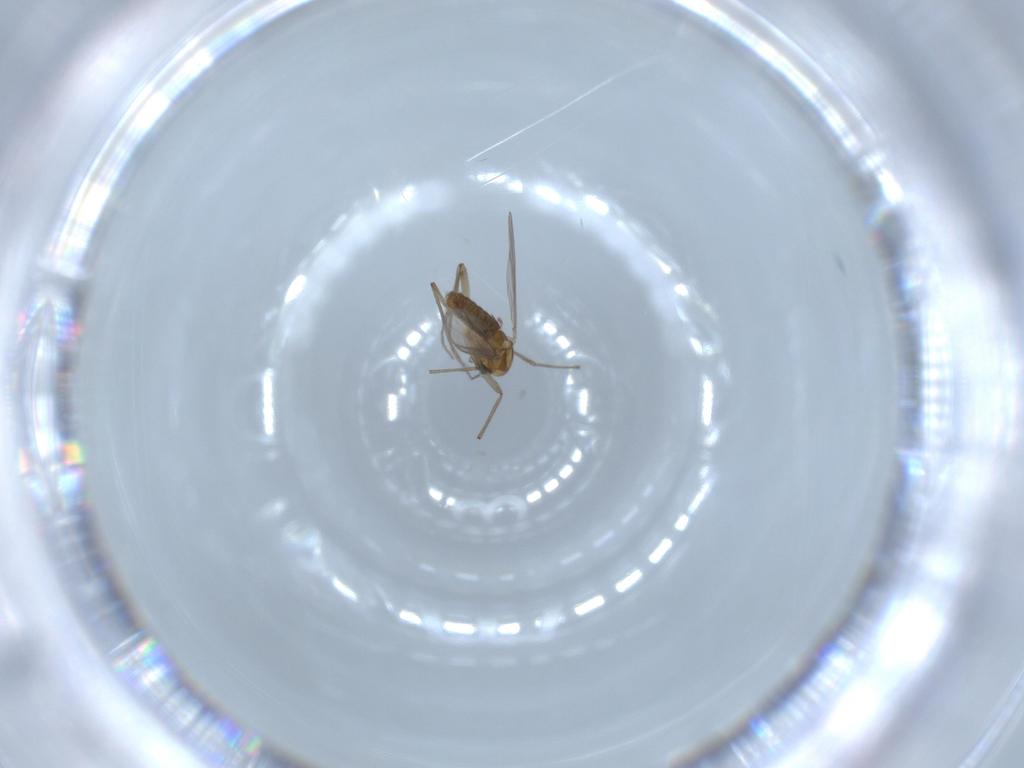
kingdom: Animalia
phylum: Arthropoda
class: Insecta
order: Diptera
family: Chironomidae
